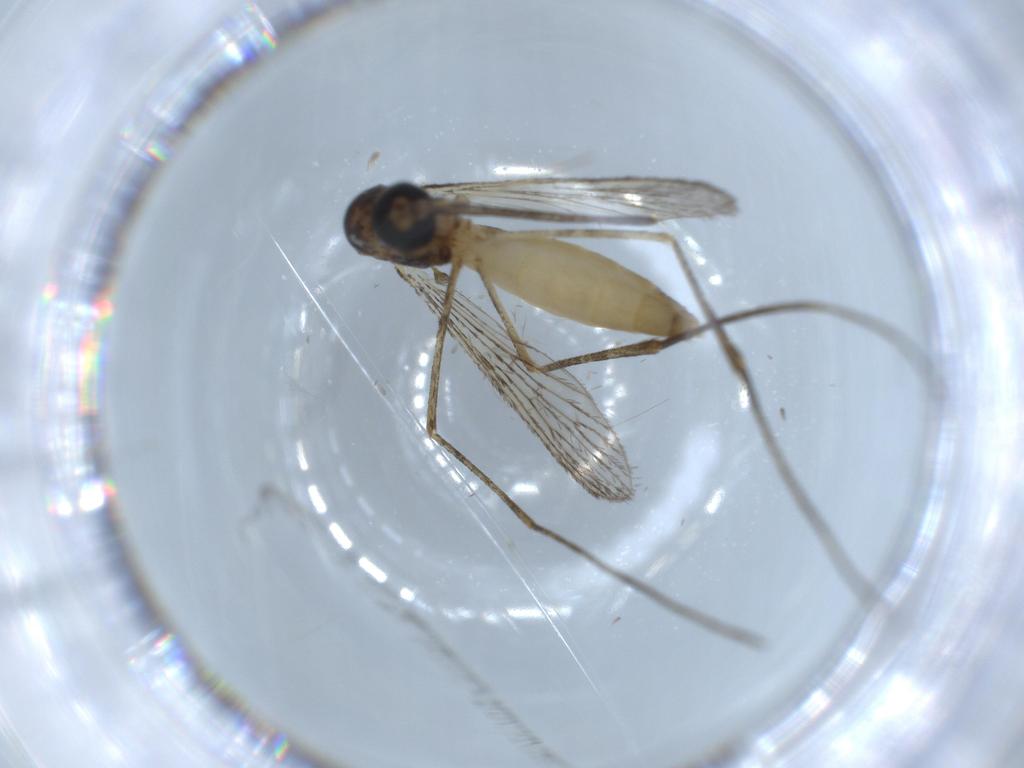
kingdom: Animalia
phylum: Arthropoda
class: Insecta
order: Diptera
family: Culicidae
